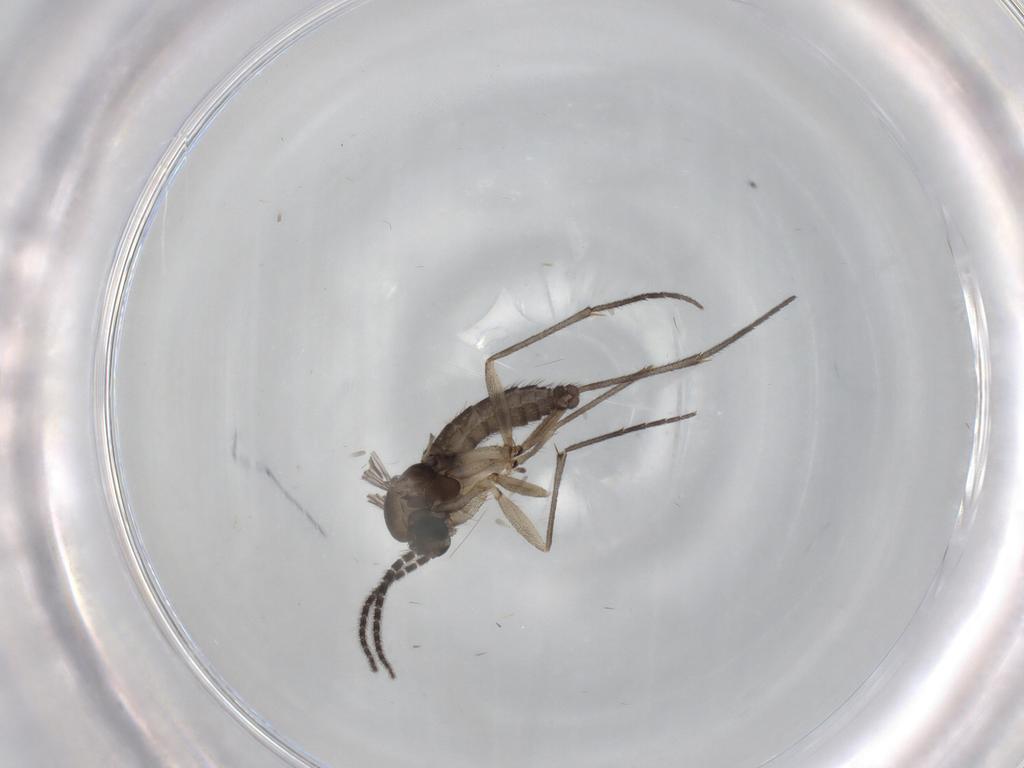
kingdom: Animalia
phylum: Arthropoda
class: Insecta
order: Diptera
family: Sciaridae
